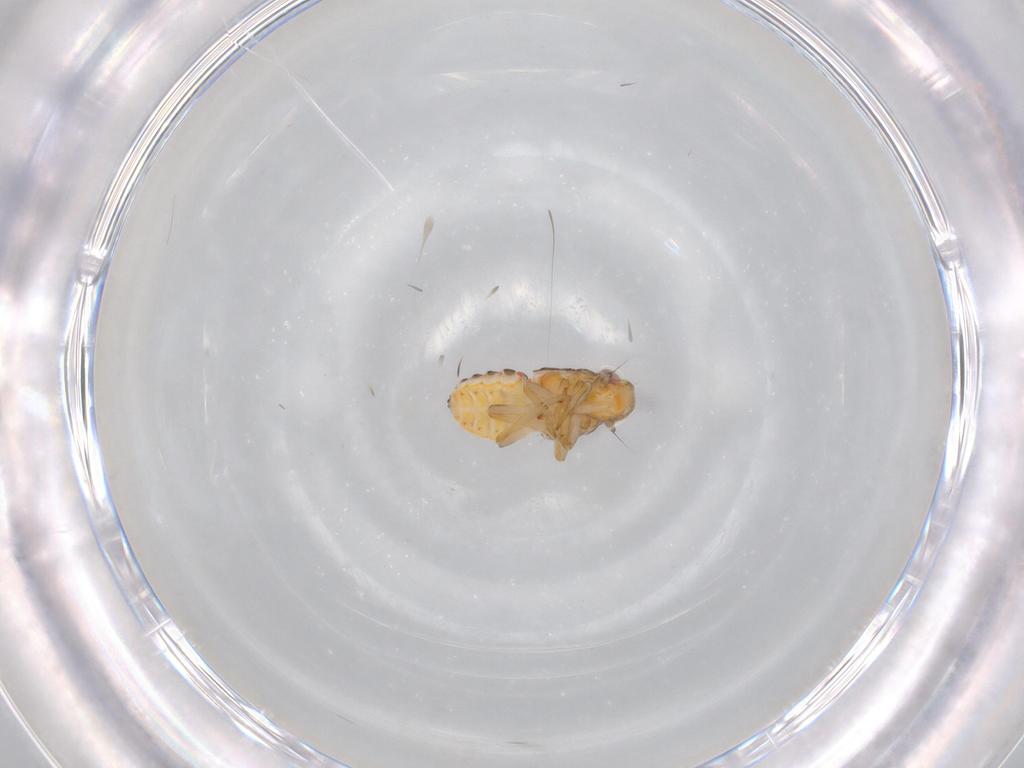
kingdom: Animalia
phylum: Arthropoda
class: Insecta
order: Hemiptera
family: Issidae
